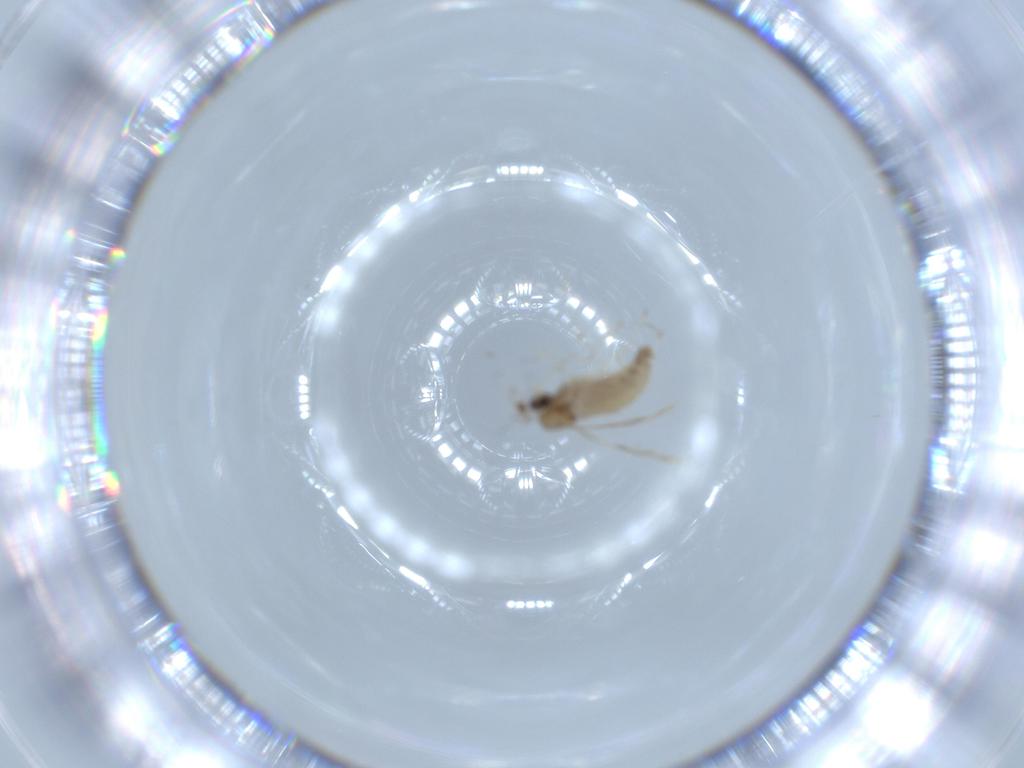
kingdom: Animalia
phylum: Arthropoda
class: Insecta
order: Diptera
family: Cecidomyiidae
